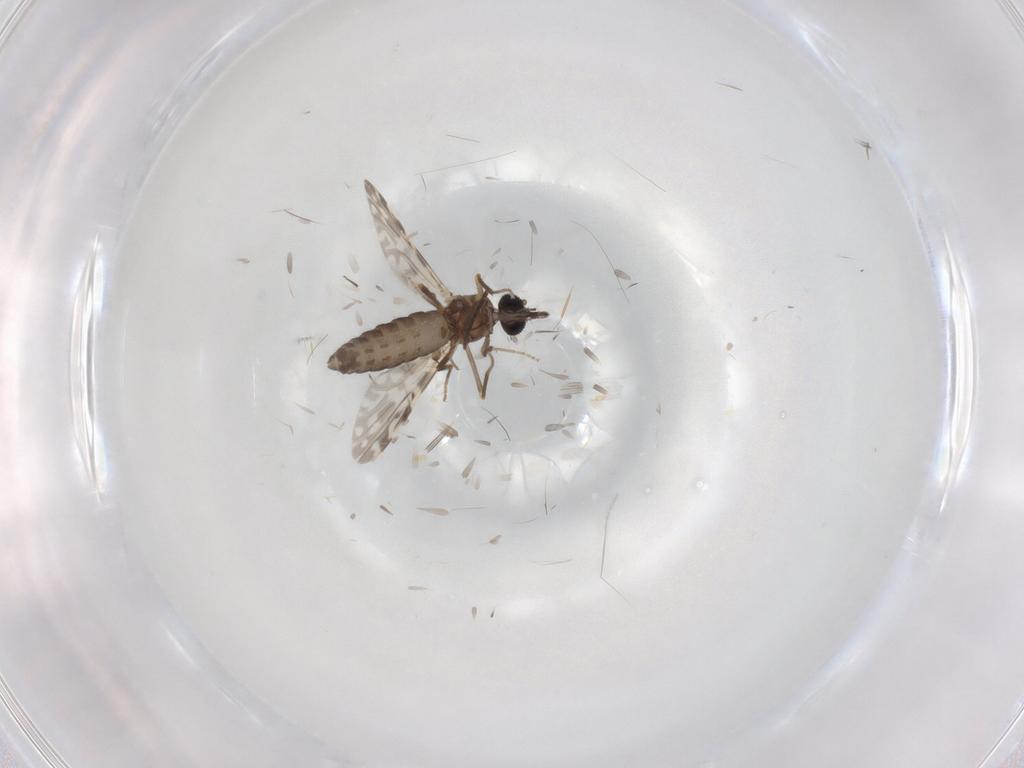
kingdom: Animalia
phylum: Arthropoda
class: Insecta
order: Diptera
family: Ceratopogonidae
